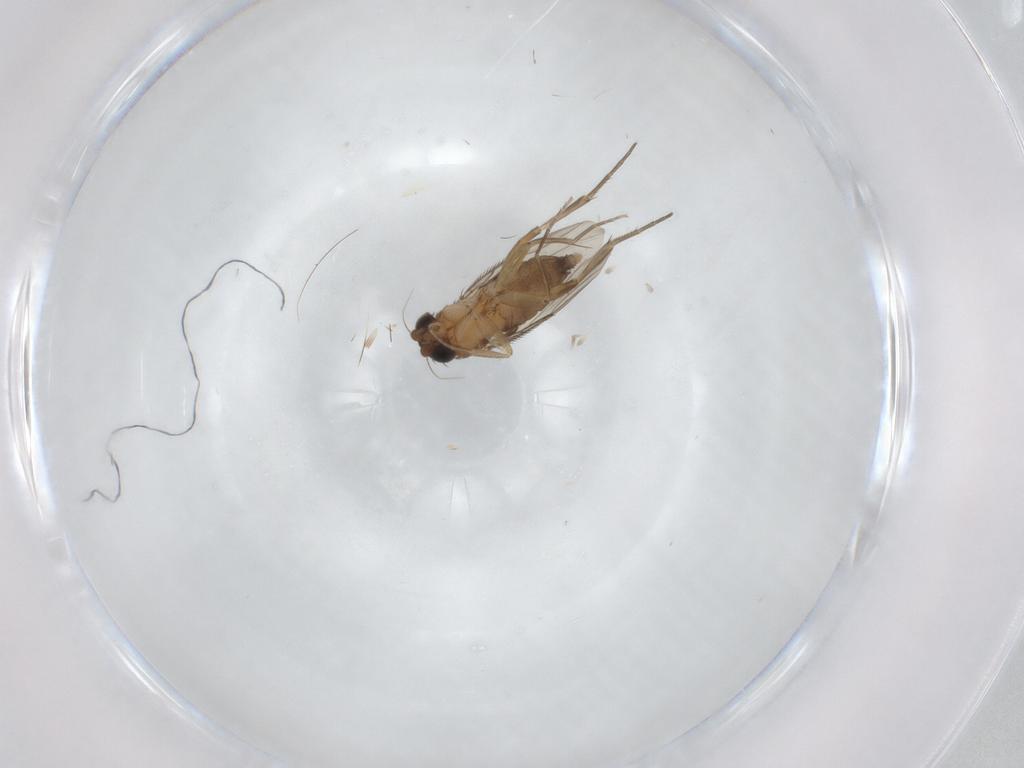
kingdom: Animalia
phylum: Arthropoda
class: Insecta
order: Diptera
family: Phoridae
